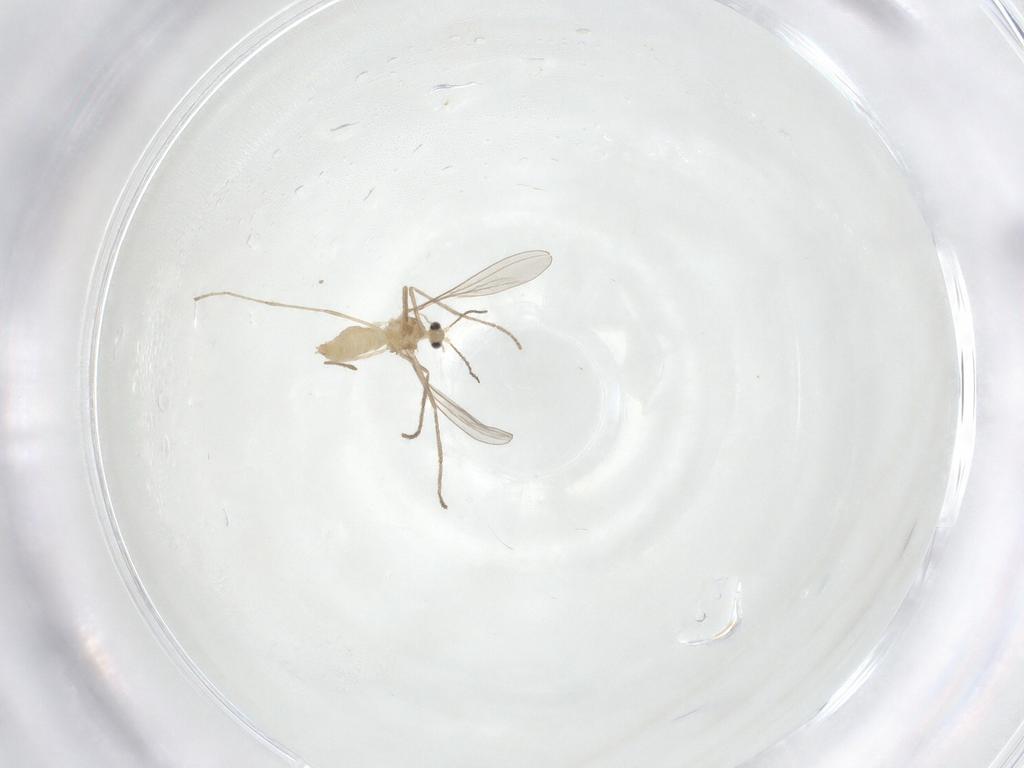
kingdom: Animalia
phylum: Arthropoda
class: Insecta
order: Diptera
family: Cecidomyiidae
